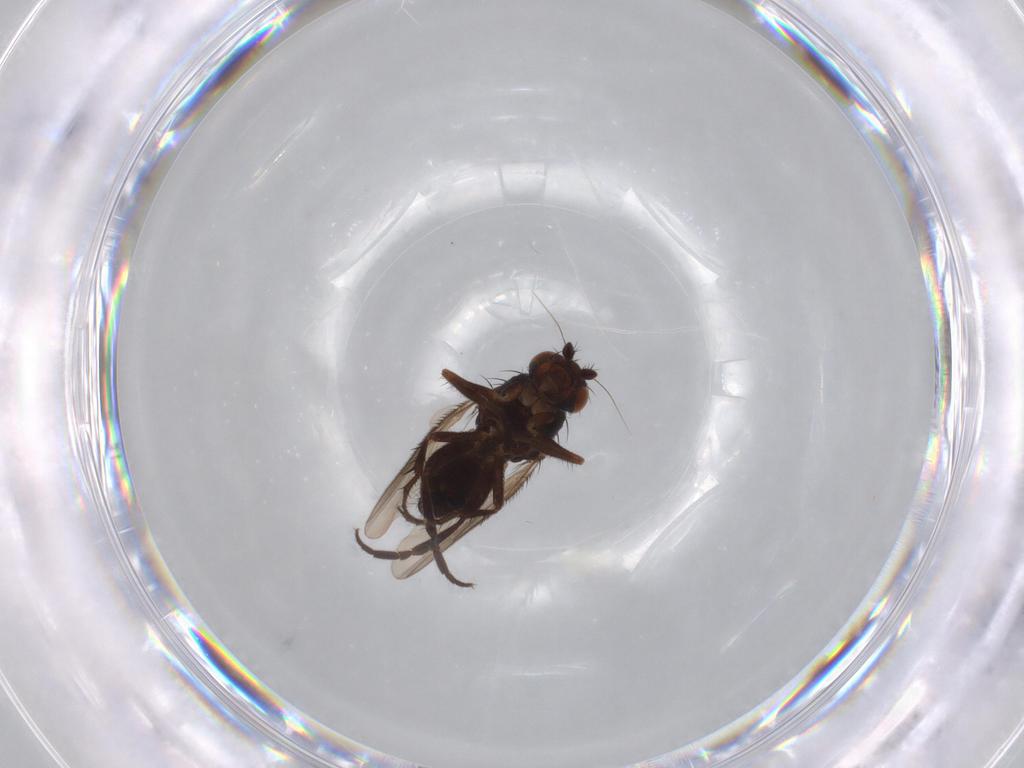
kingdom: Animalia
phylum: Arthropoda
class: Insecta
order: Diptera
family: Sphaeroceridae
